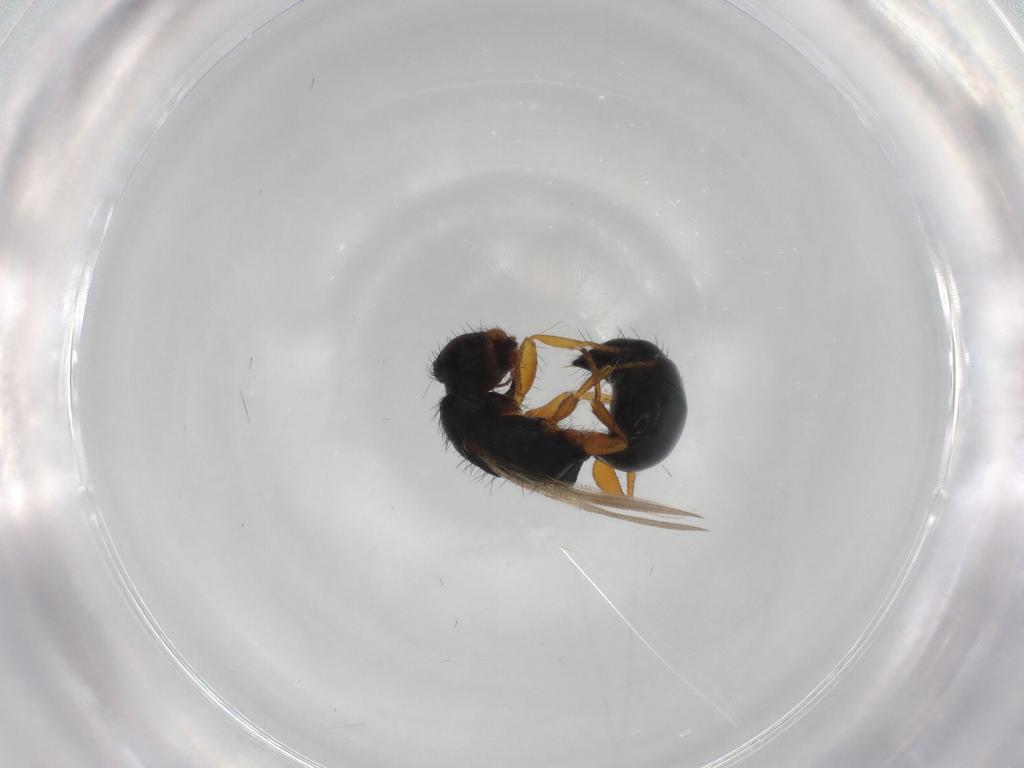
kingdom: Animalia
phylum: Arthropoda
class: Insecta
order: Hymenoptera
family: Bethylidae
